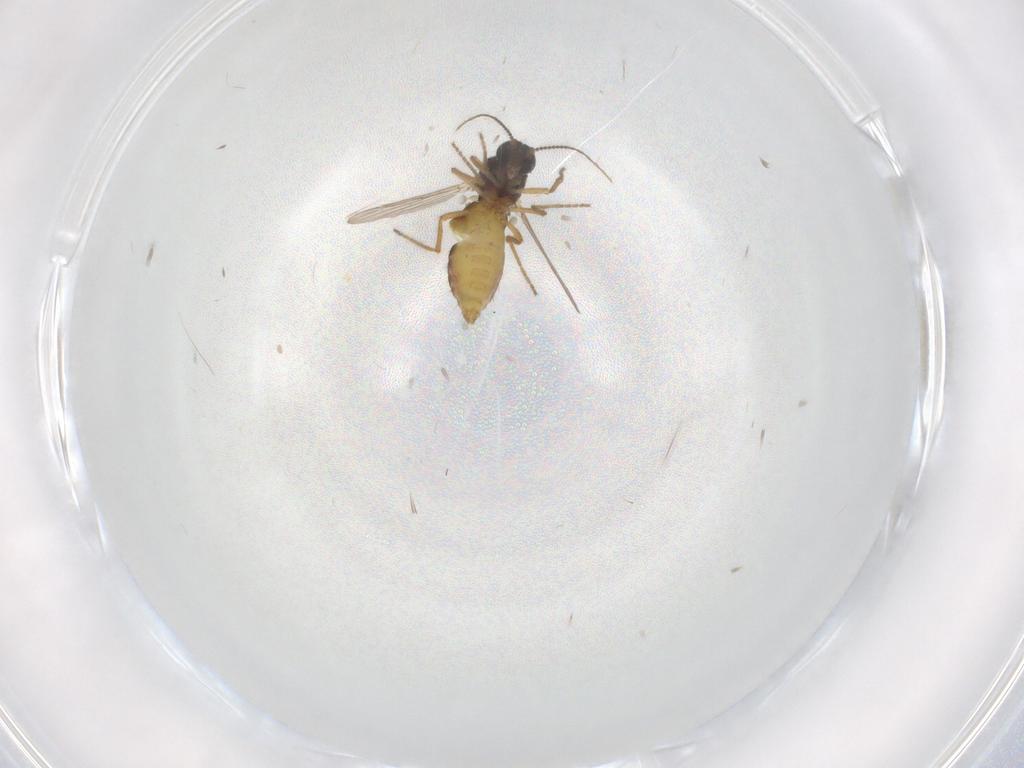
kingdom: Animalia
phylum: Arthropoda
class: Insecta
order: Diptera
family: Ceratopogonidae
